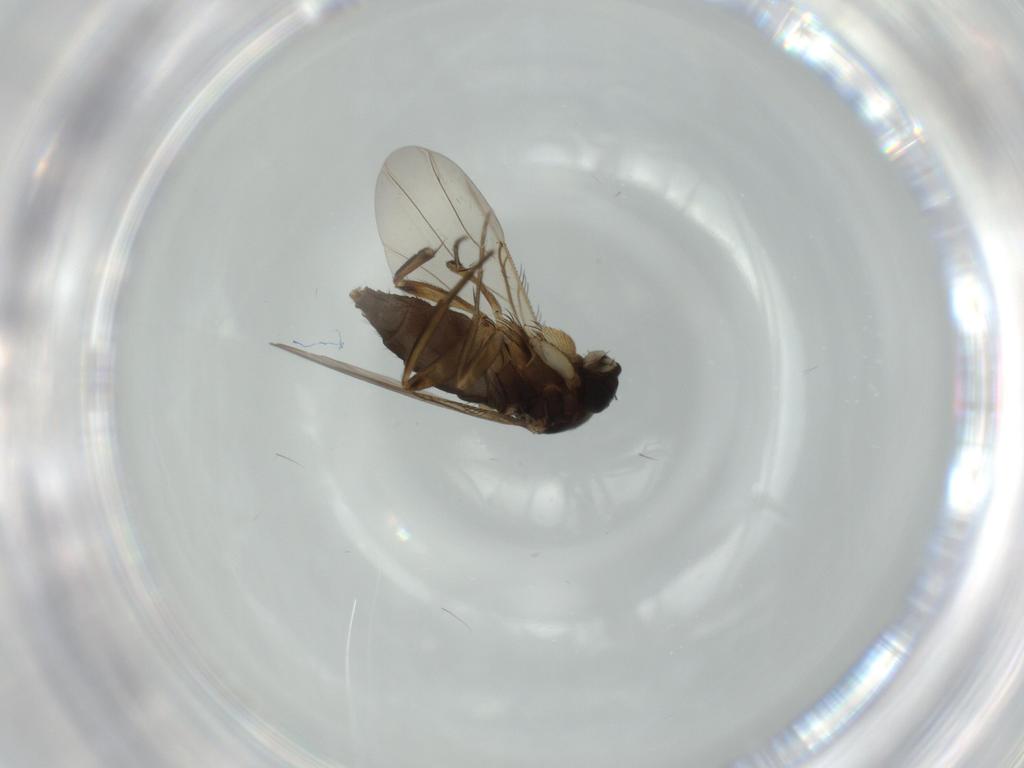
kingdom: Animalia
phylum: Arthropoda
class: Insecta
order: Diptera
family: Phoridae
